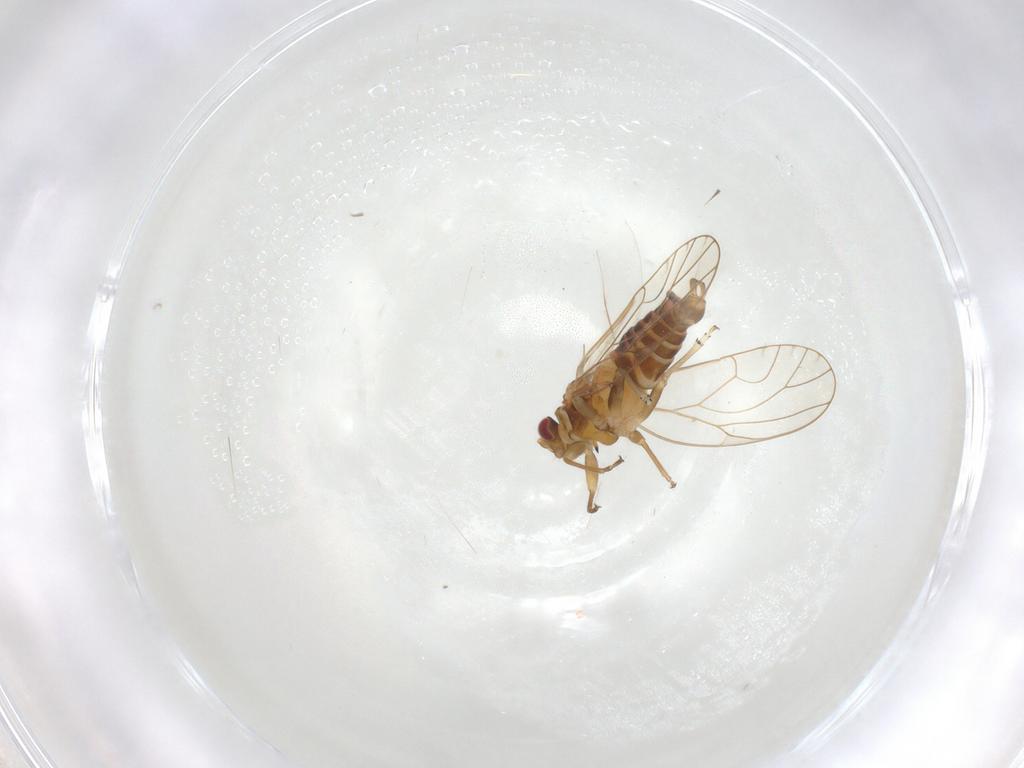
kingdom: Animalia
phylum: Arthropoda
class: Insecta
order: Hemiptera
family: Psyllidae
